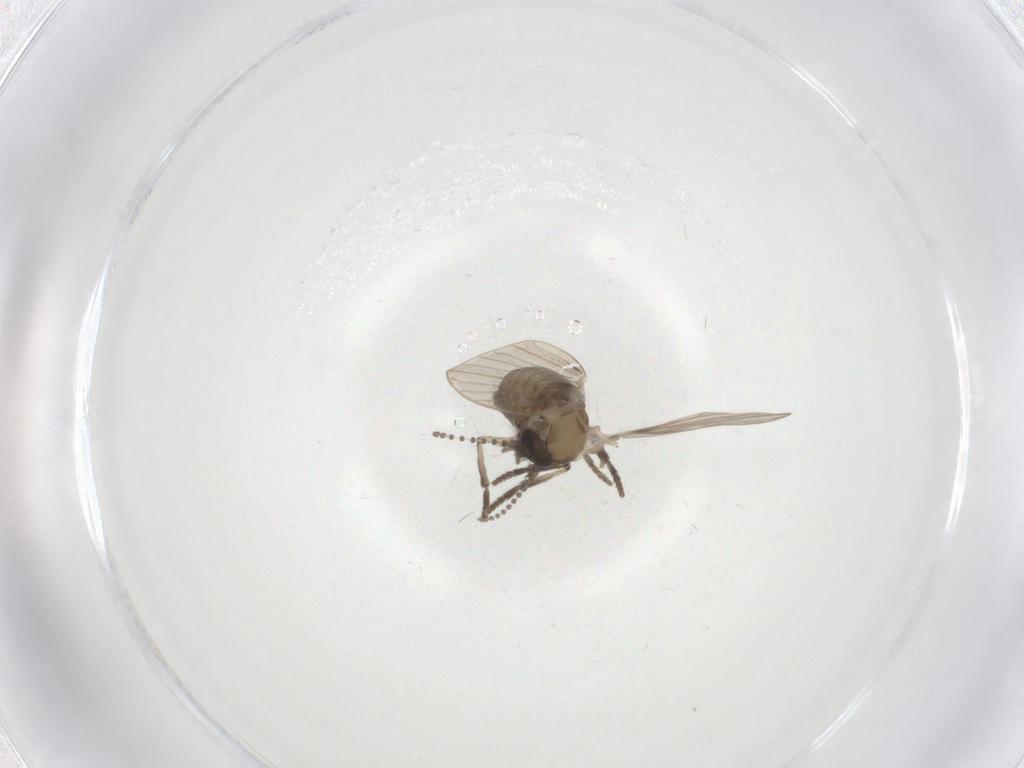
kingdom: Animalia
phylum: Arthropoda
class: Insecta
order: Diptera
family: Psychodidae
